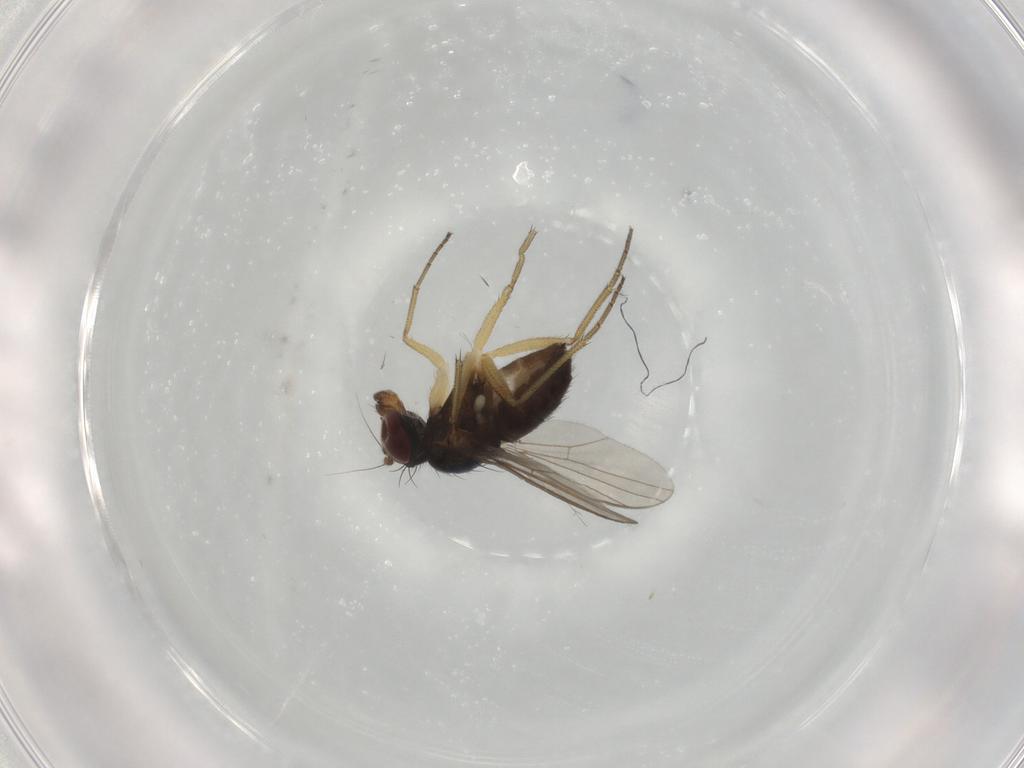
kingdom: Animalia
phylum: Arthropoda
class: Insecta
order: Diptera
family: Dolichopodidae
